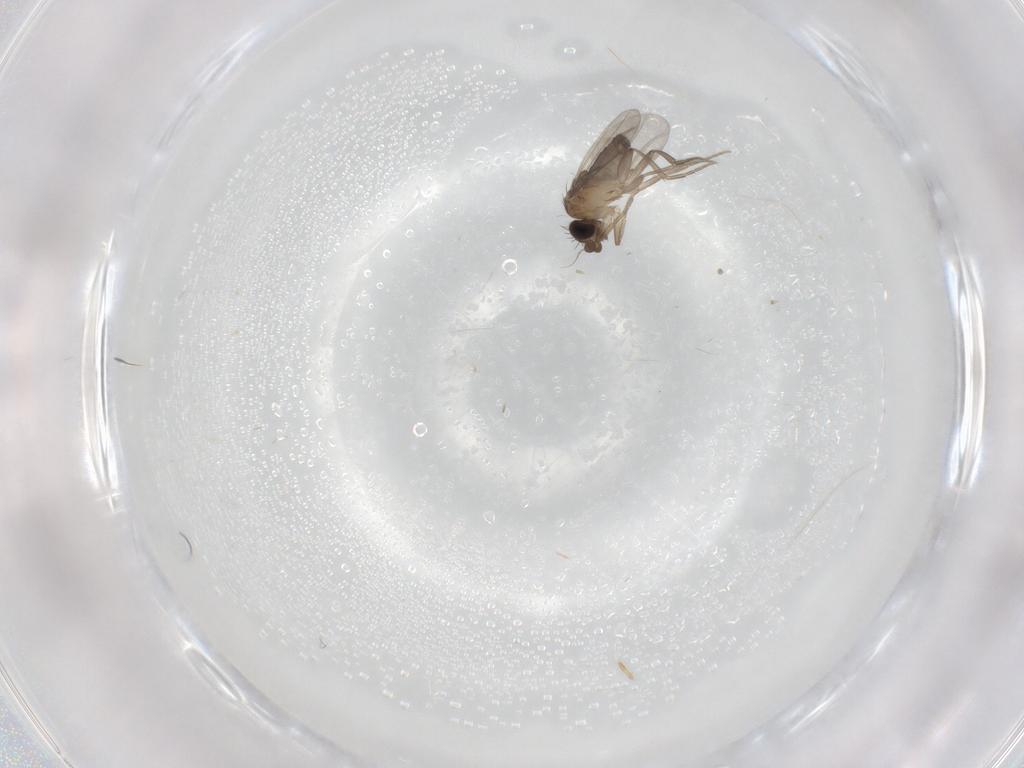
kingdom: Animalia
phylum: Arthropoda
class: Insecta
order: Diptera
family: Phoridae
